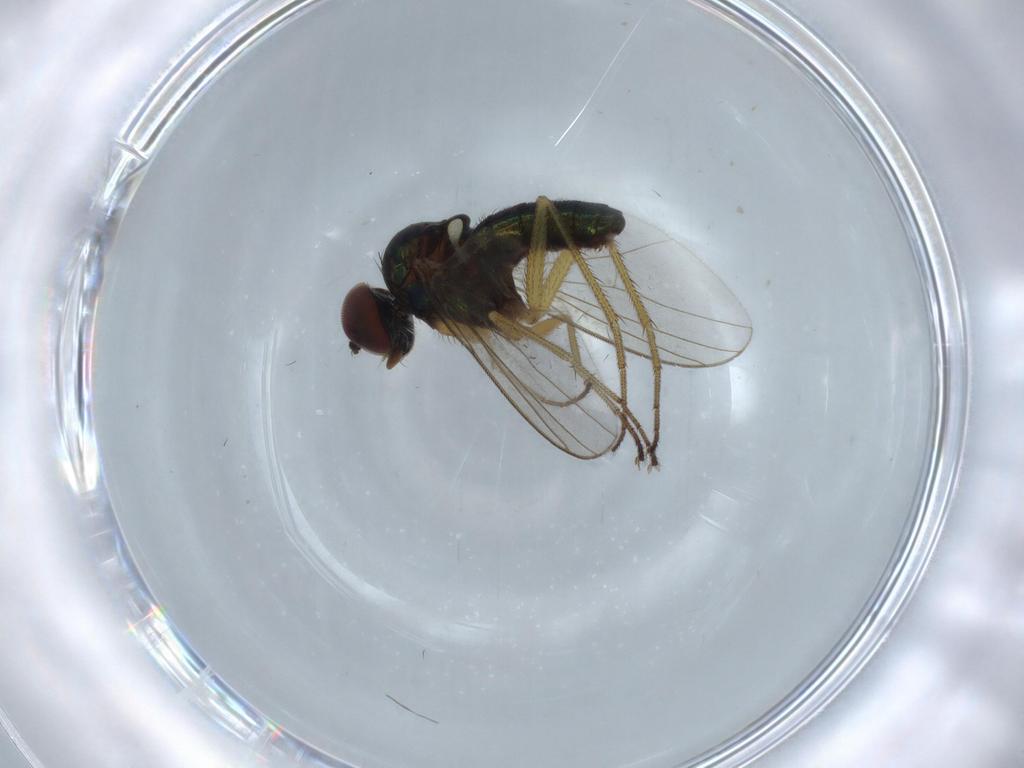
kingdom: Animalia
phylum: Arthropoda
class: Insecta
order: Diptera
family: Dolichopodidae
